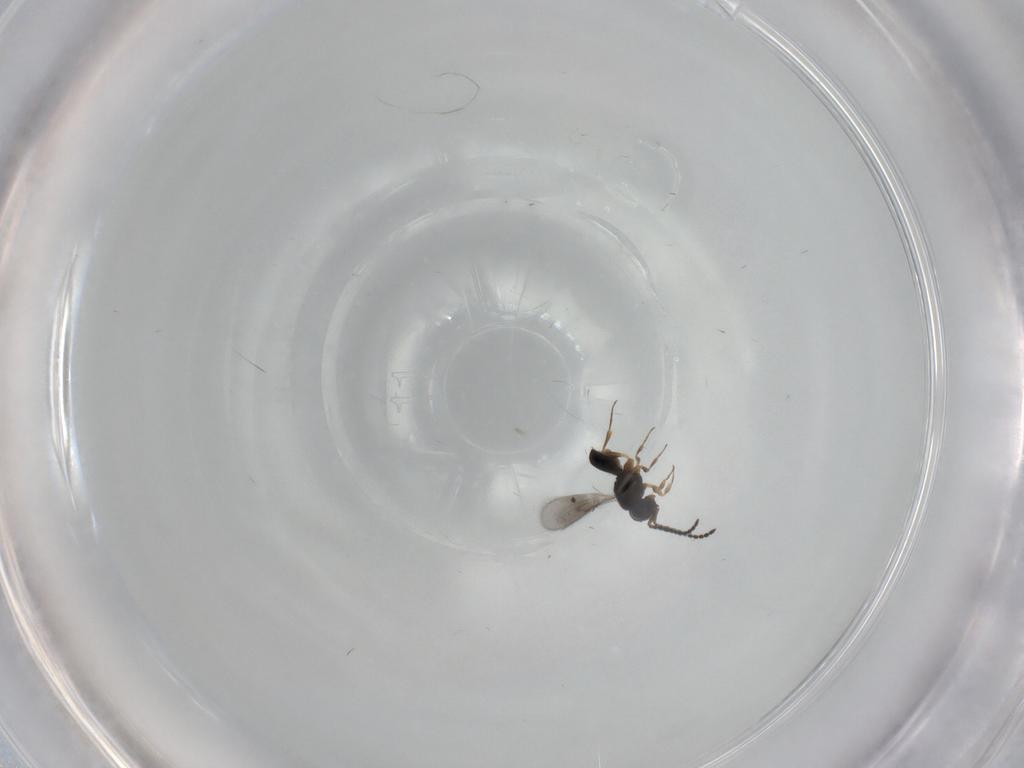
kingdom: Animalia
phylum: Arthropoda
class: Insecta
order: Hymenoptera
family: Scelionidae
